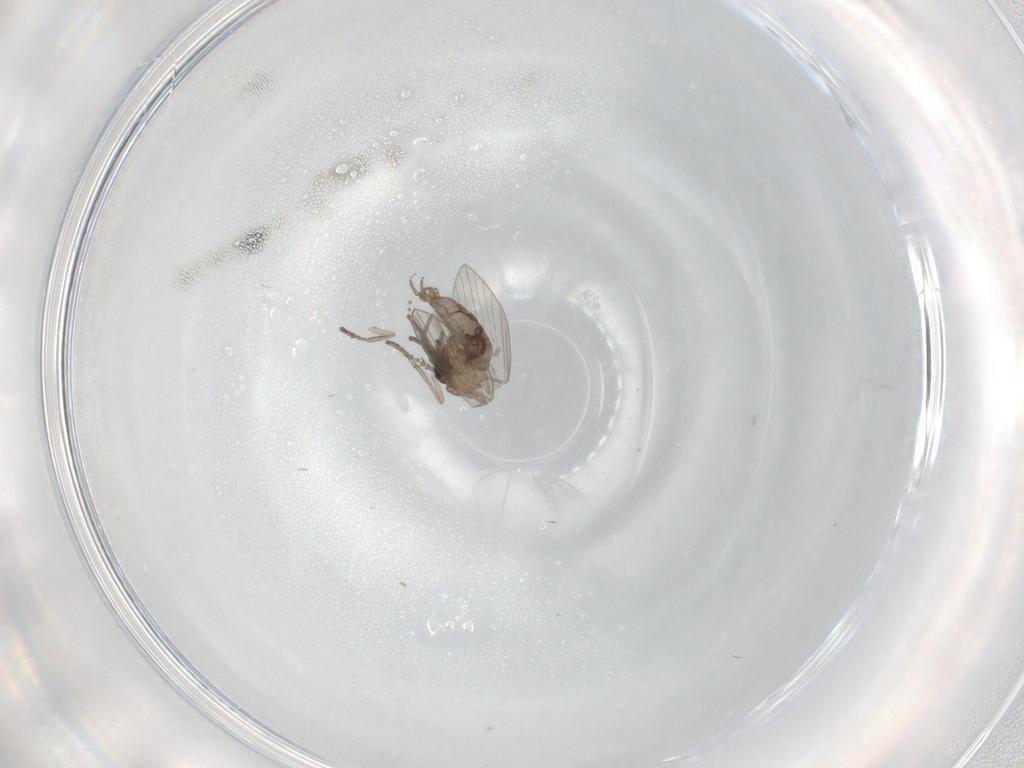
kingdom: Animalia
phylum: Arthropoda
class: Insecta
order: Diptera
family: Psychodidae
